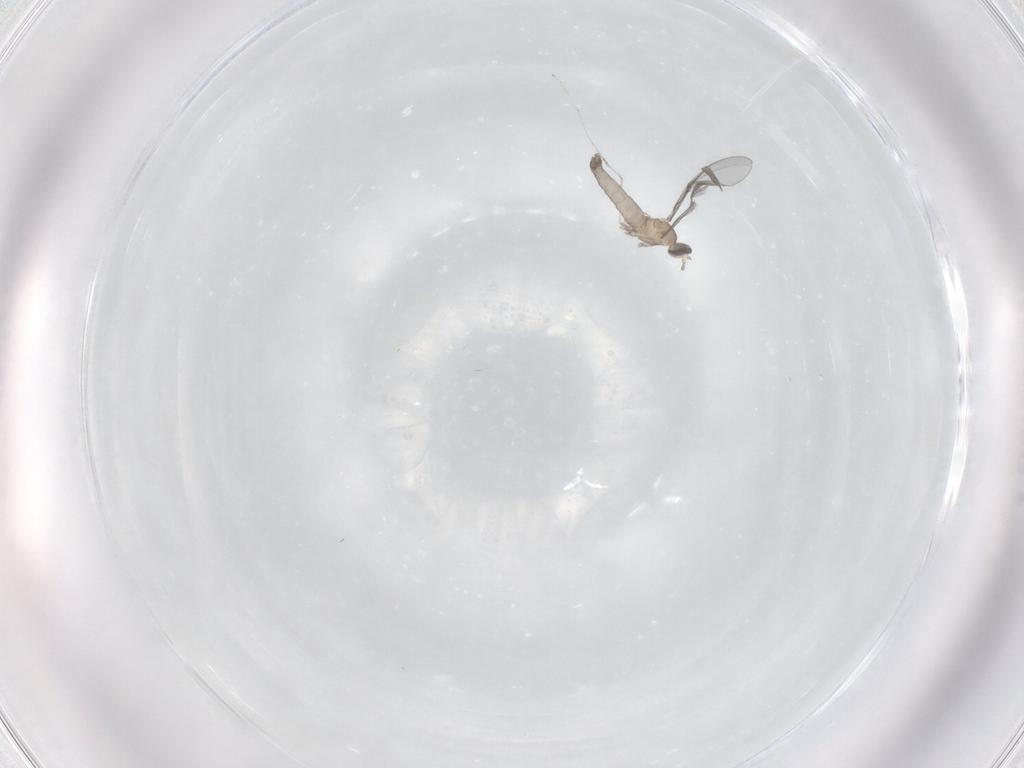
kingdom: Animalia
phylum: Arthropoda
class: Insecta
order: Diptera
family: Cecidomyiidae
